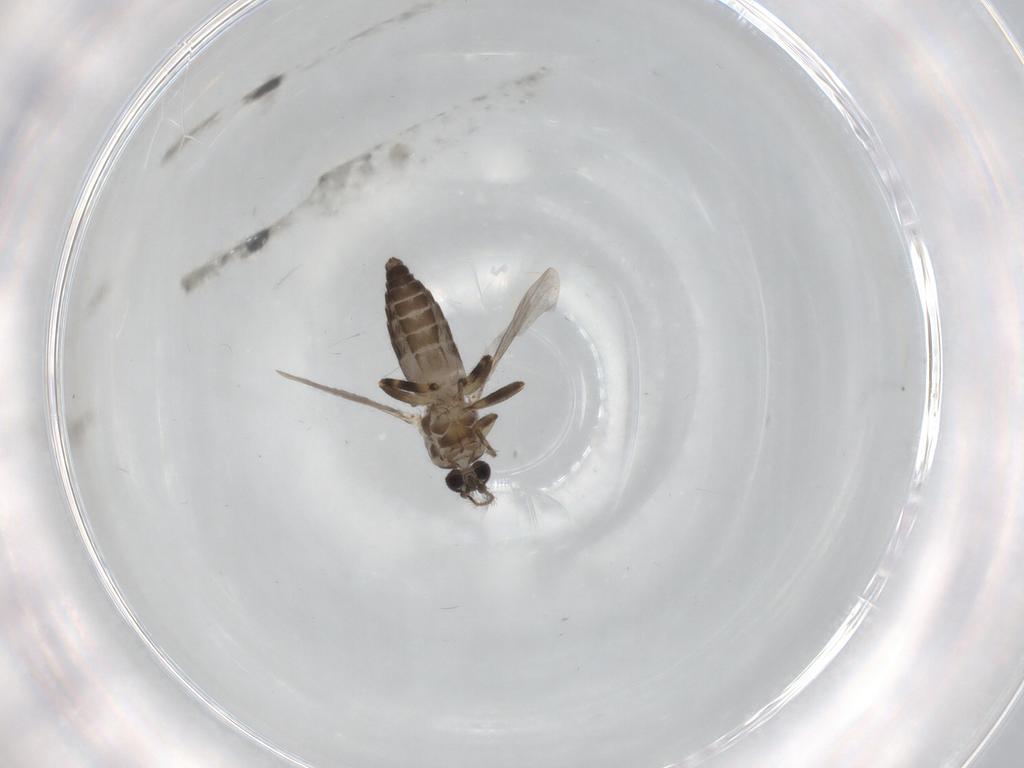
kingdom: Animalia
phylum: Arthropoda
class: Insecta
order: Diptera
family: Ceratopogonidae
